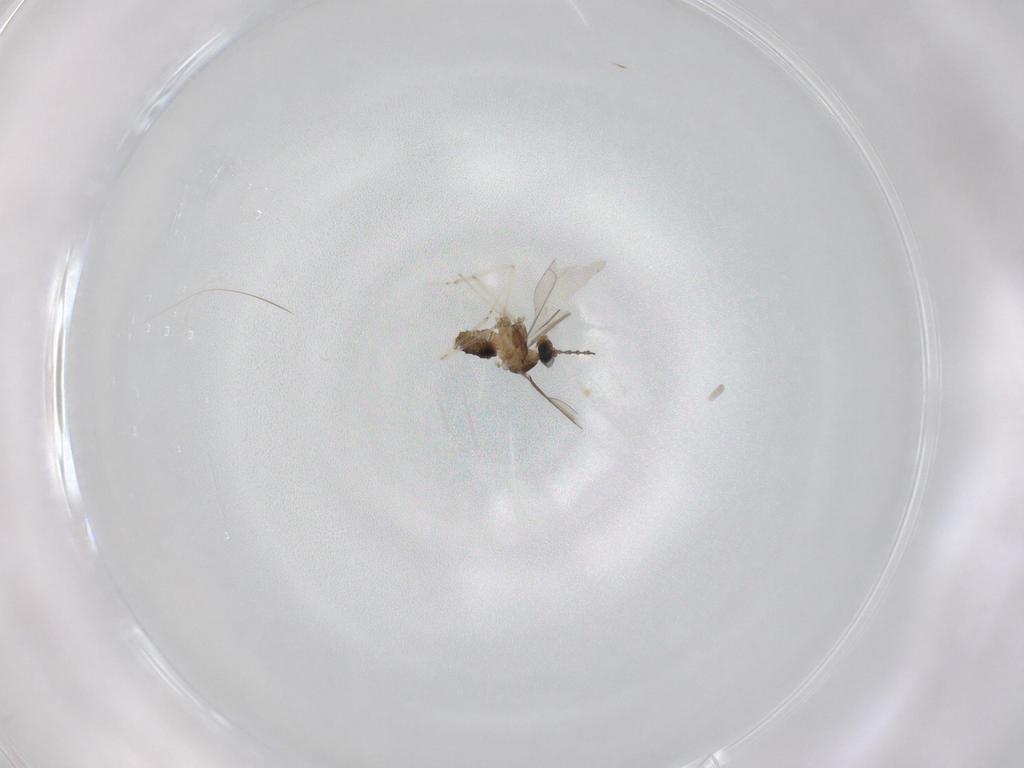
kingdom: Animalia
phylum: Arthropoda
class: Insecta
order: Diptera
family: Cecidomyiidae
